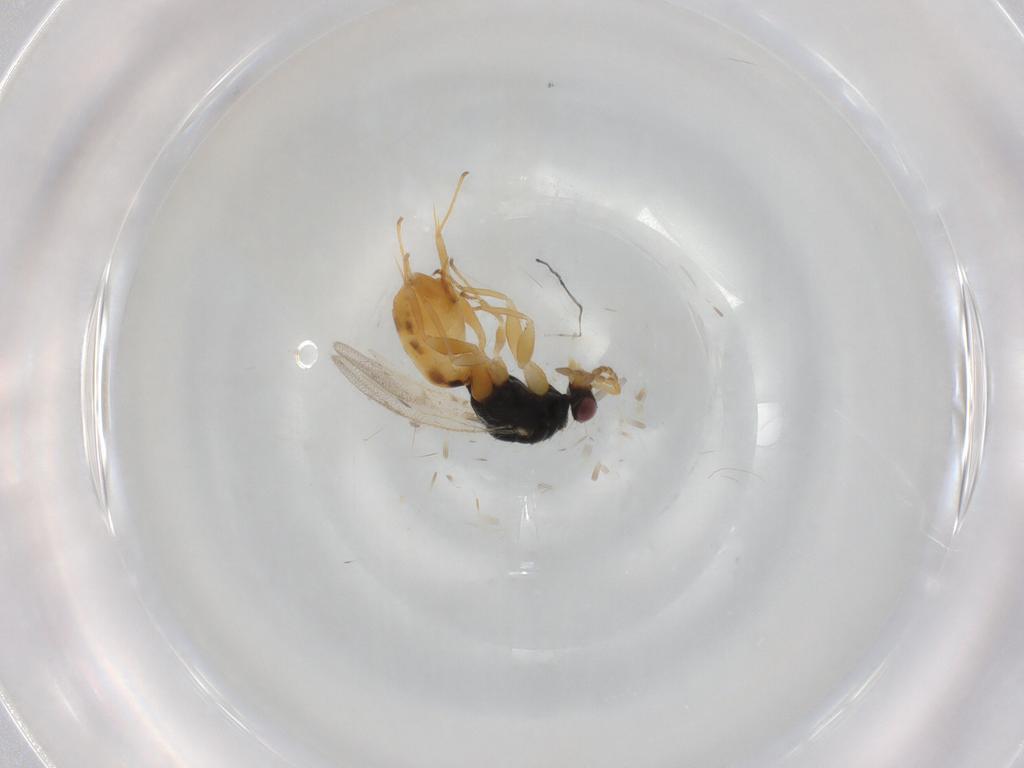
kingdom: Animalia
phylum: Arthropoda
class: Insecta
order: Hymenoptera
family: Eulophidae
